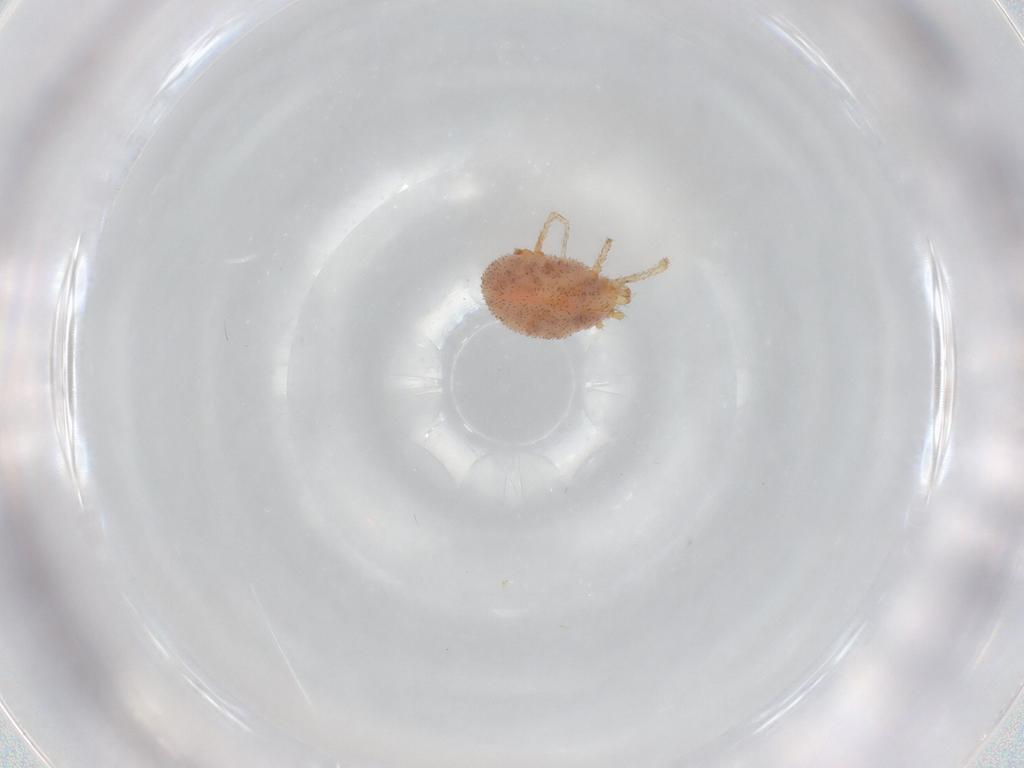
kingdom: Animalia
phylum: Arthropoda
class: Arachnida
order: Trombidiformes
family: Erythraeidae
